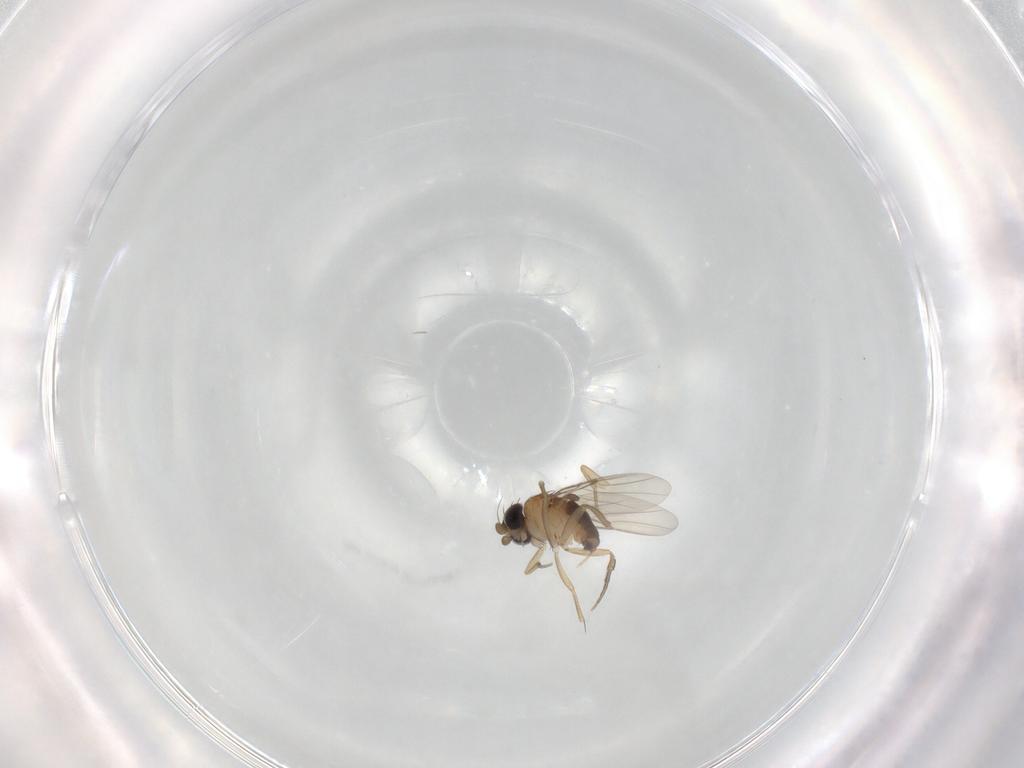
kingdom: Animalia
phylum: Arthropoda
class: Insecta
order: Diptera
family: Phoridae
